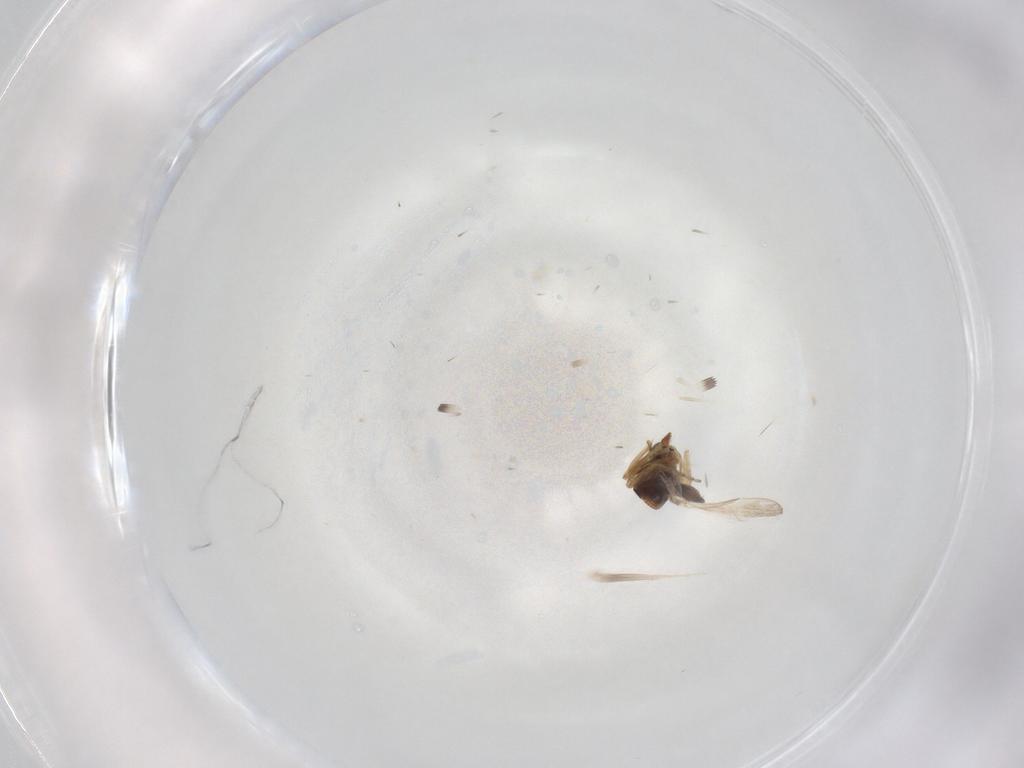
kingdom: Animalia
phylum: Arthropoda
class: Insecta
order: Diptera
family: Ceratopogonidae
